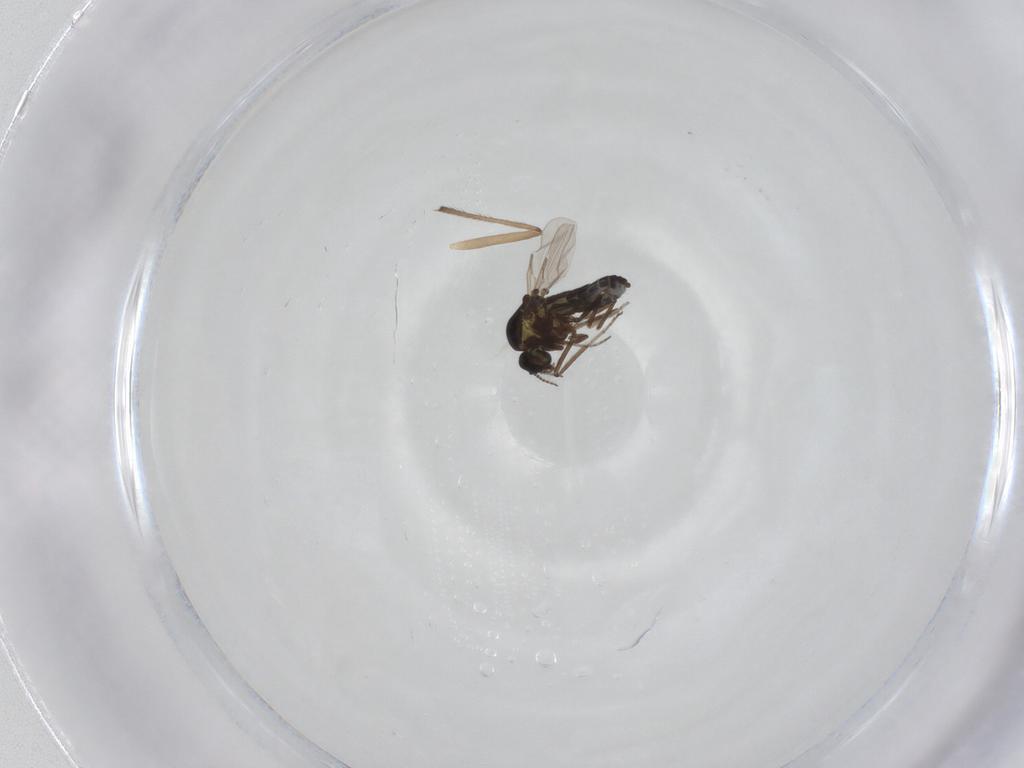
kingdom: Animalia
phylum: Arthropoda
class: Insecta
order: Diptera
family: Ceratopogonidae
